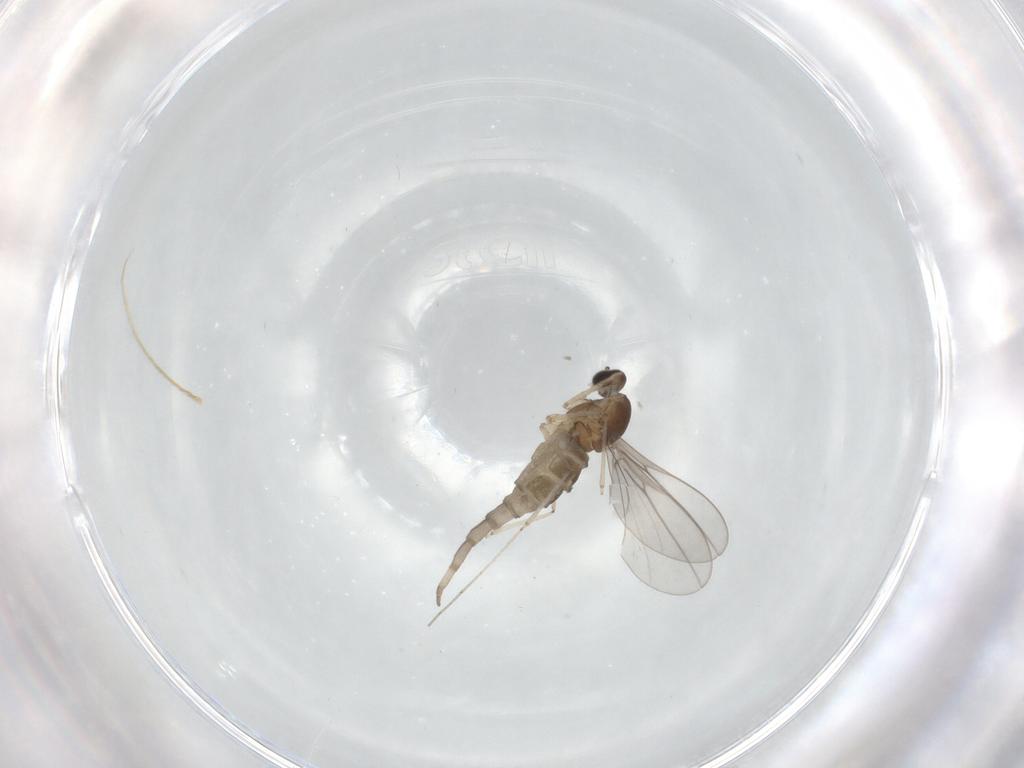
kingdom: Animalia
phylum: Arthropoda
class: Insecta
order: Diptera
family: Cecidomyiidae
